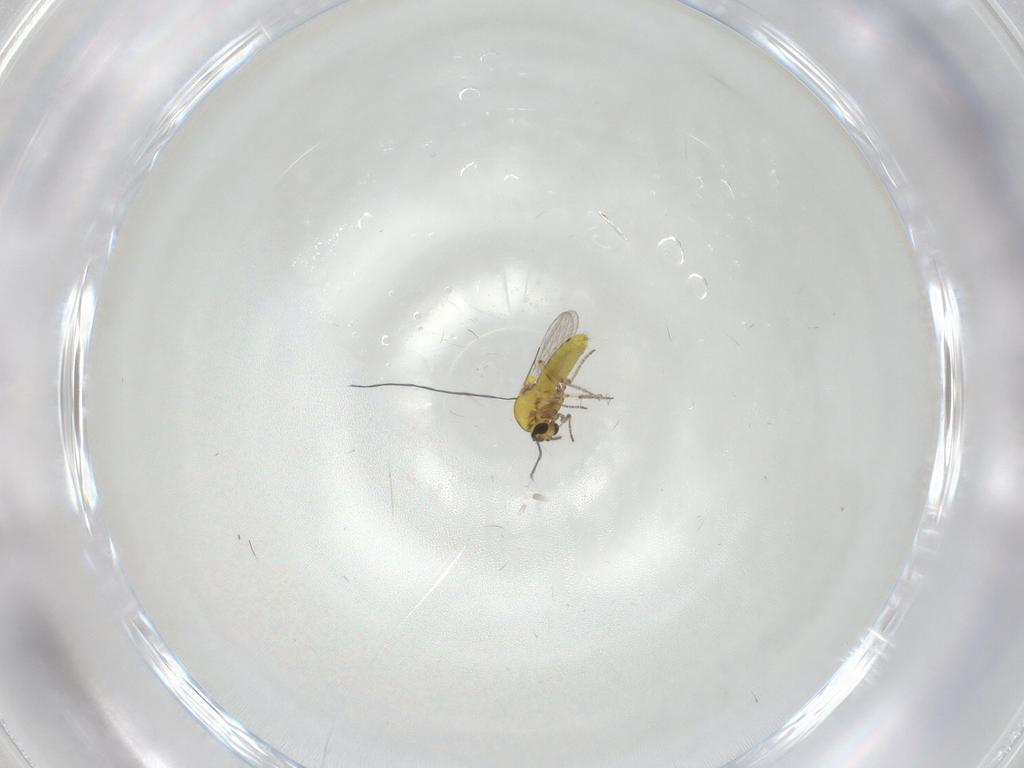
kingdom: Animalia
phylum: Arthropoda
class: Insecta
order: Diptera
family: Ceratopogonidae
